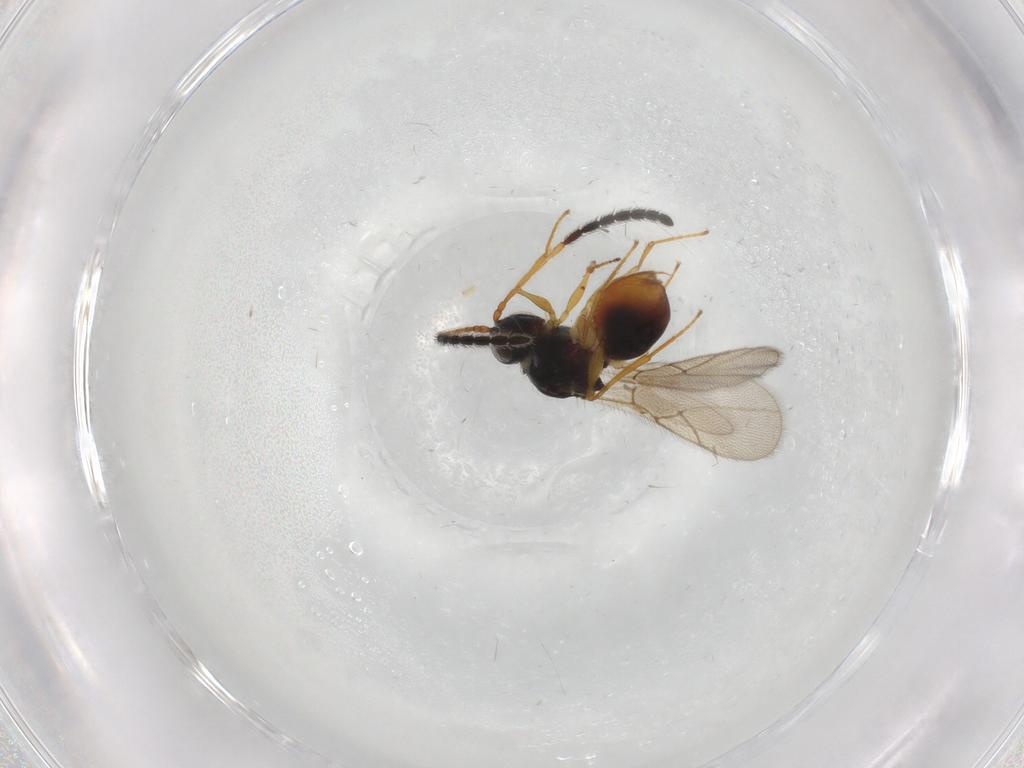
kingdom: Animalia
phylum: Arthropoda
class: Insecta
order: Hymenoptera
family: Figitidae
